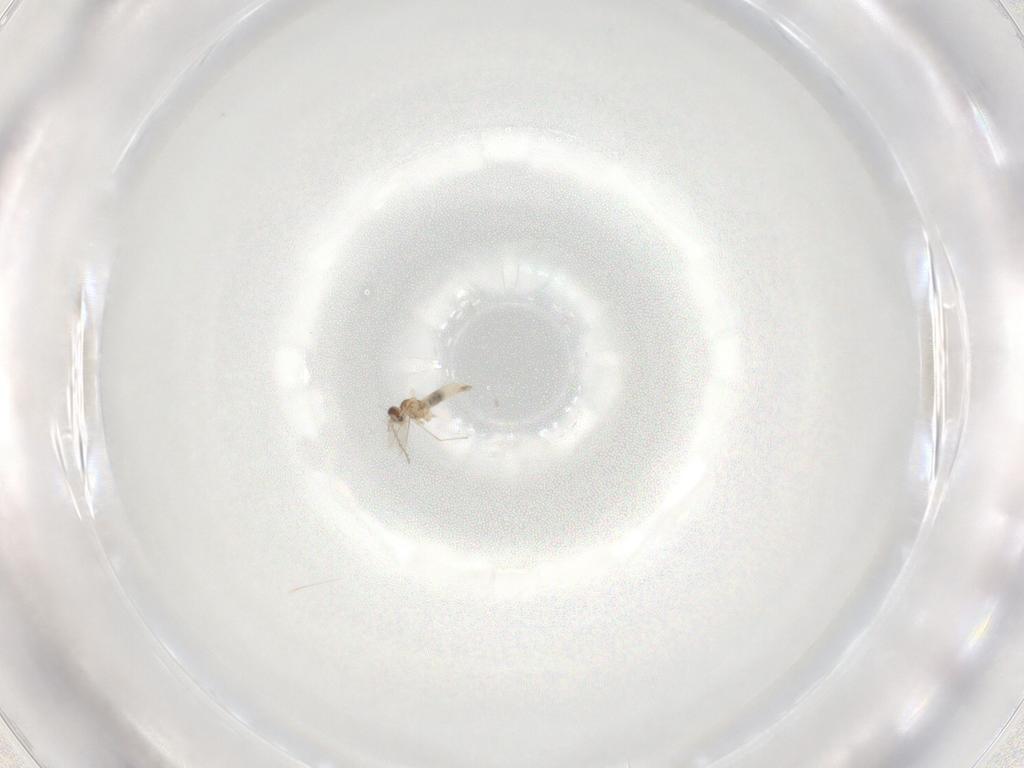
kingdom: Animalia
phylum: Arthropoda
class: Insecta
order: Diptera
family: Cecidomyiidae
